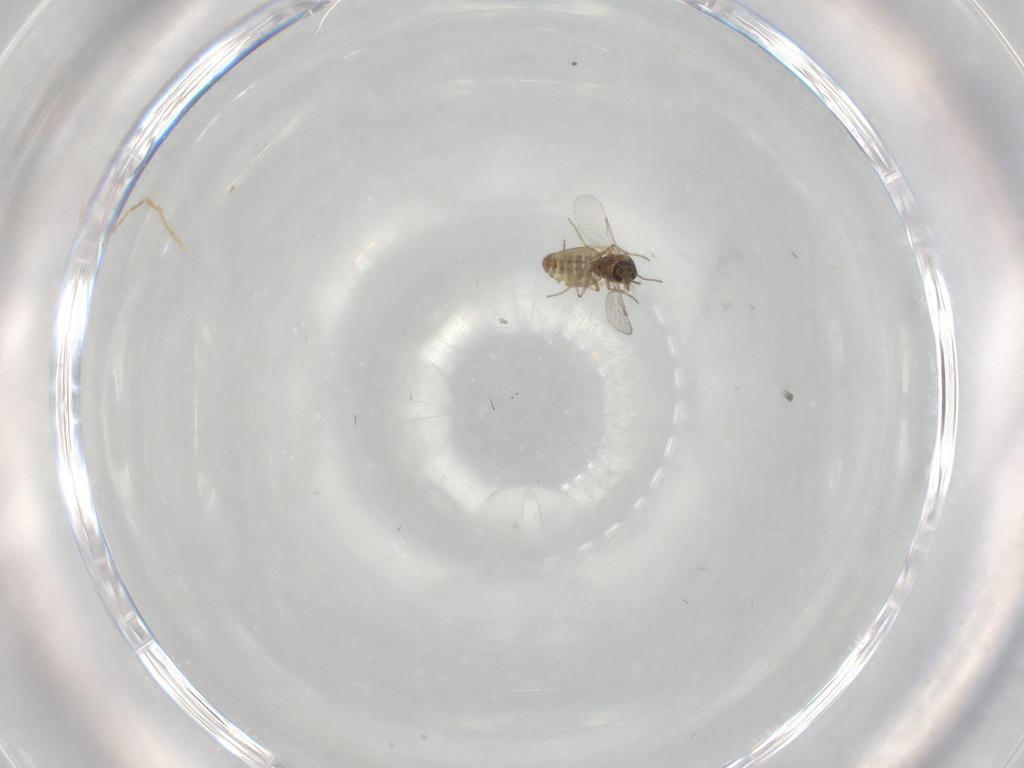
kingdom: Animalia
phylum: Arthropoda
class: Insecta
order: Diptera
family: Ceratopogonidae
